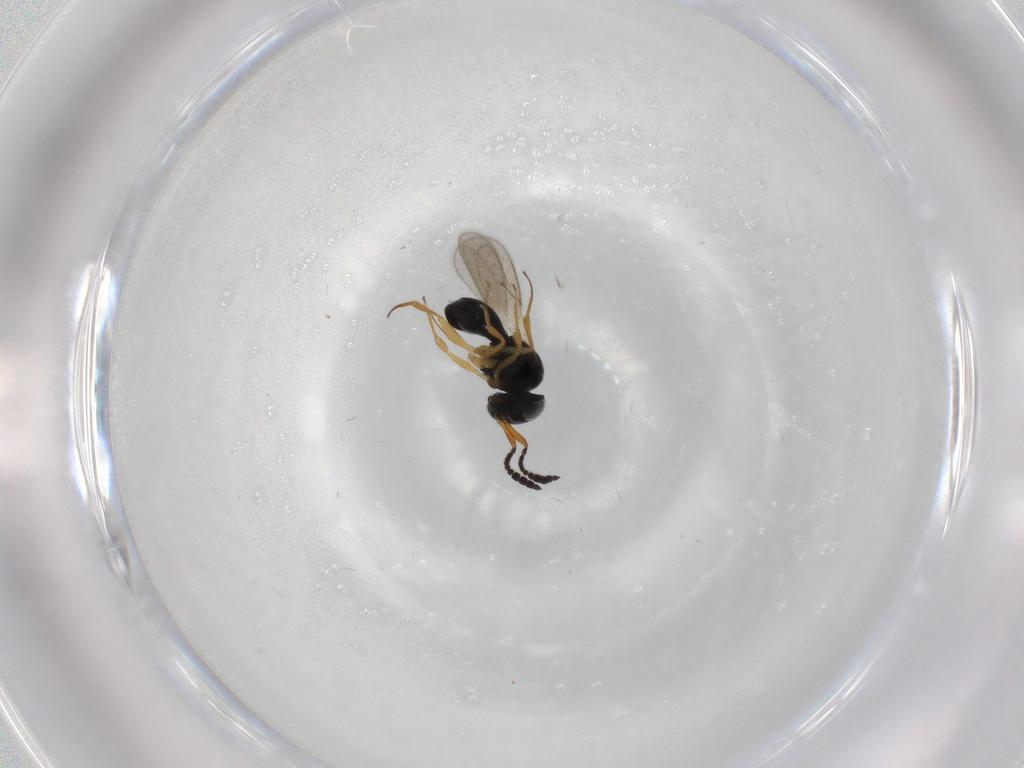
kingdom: Animalia
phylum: Arthropoda
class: Insecta
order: Hymenoptera
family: Scelionidae
